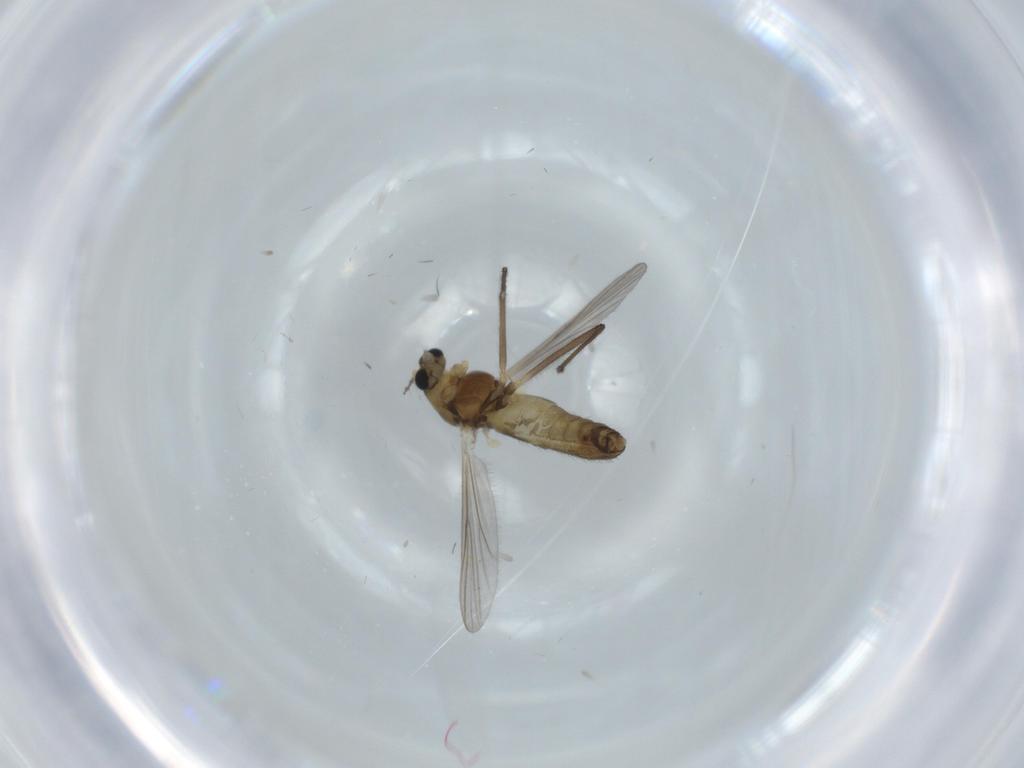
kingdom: Animalia
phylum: Arthropoda
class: Insecta
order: Diptera
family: Chironomidae
